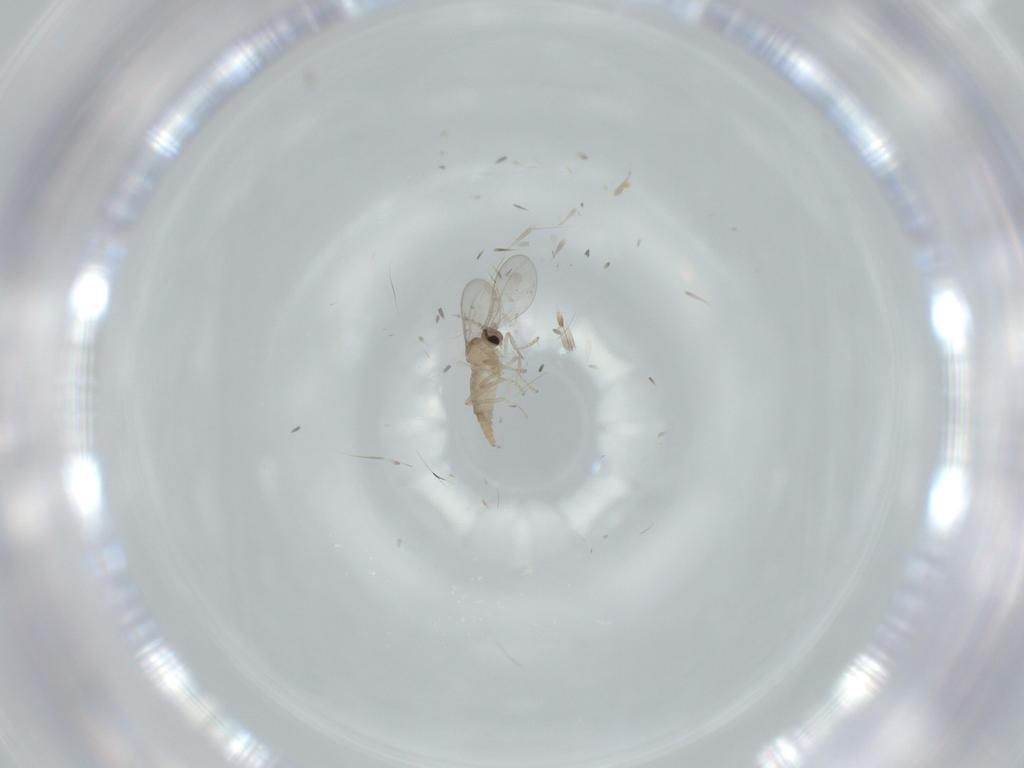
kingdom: Animalia
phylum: Arthropoda
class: Insecta
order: Diptera
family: Cecidomyiidae
